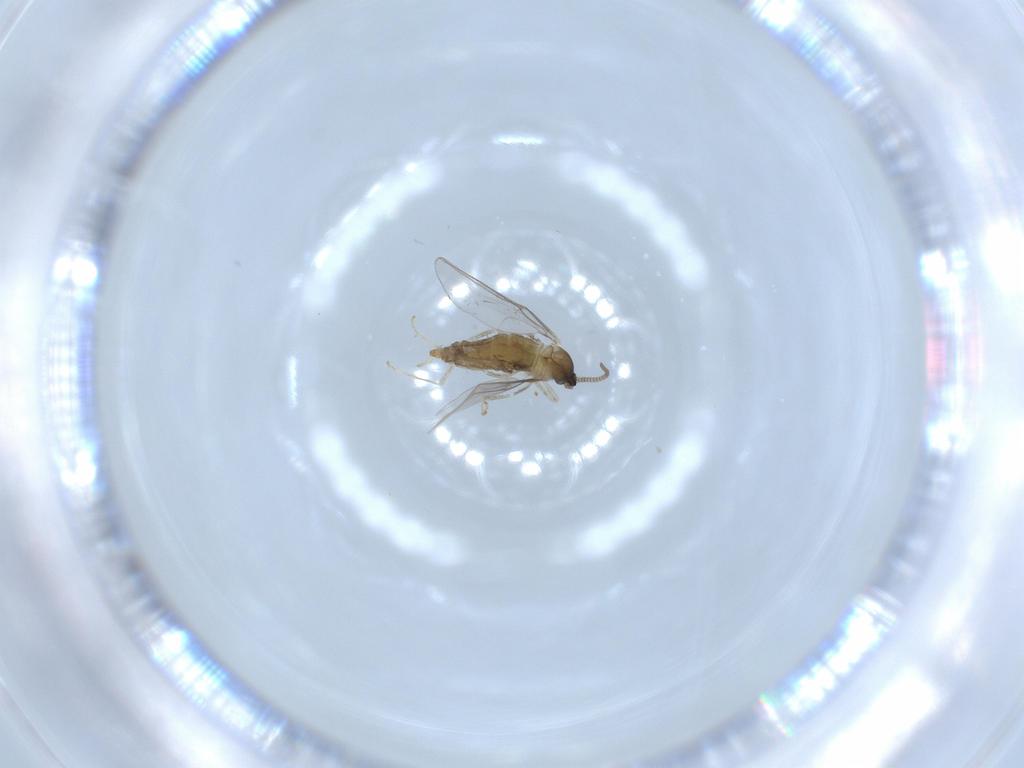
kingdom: Animalia
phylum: Arthropoda
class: Insecta
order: Diptera
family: Cecidomyiidae
